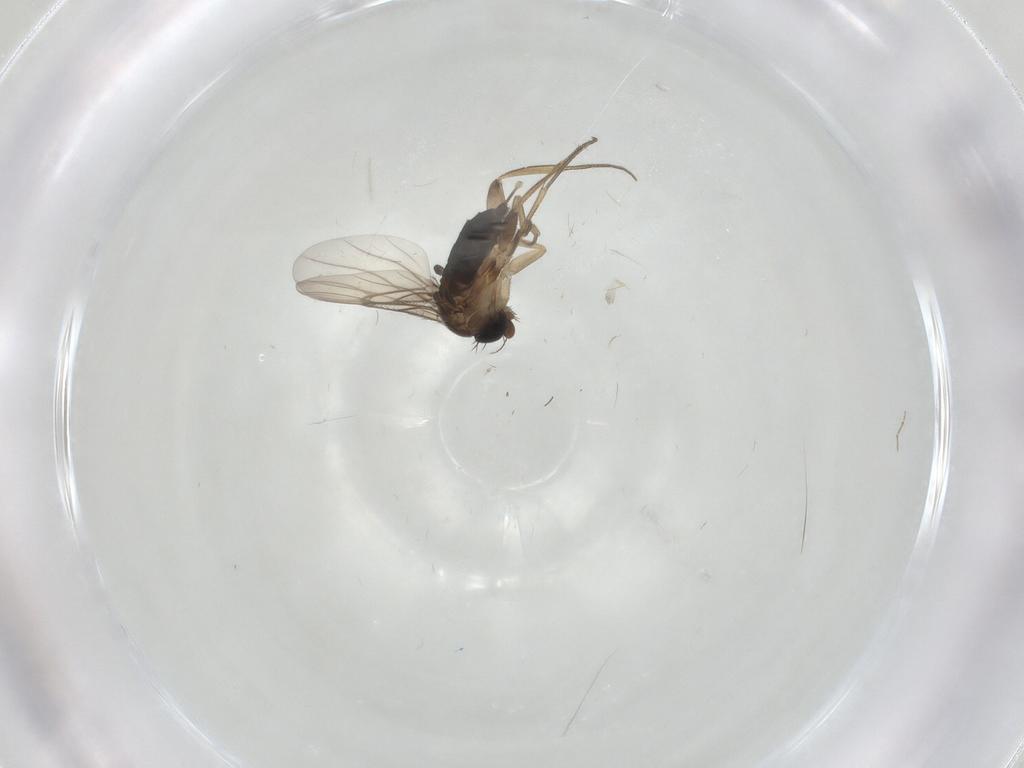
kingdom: Animalia
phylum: Arthropoda
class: Insecta
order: Diptera
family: Ceratopogonidae
